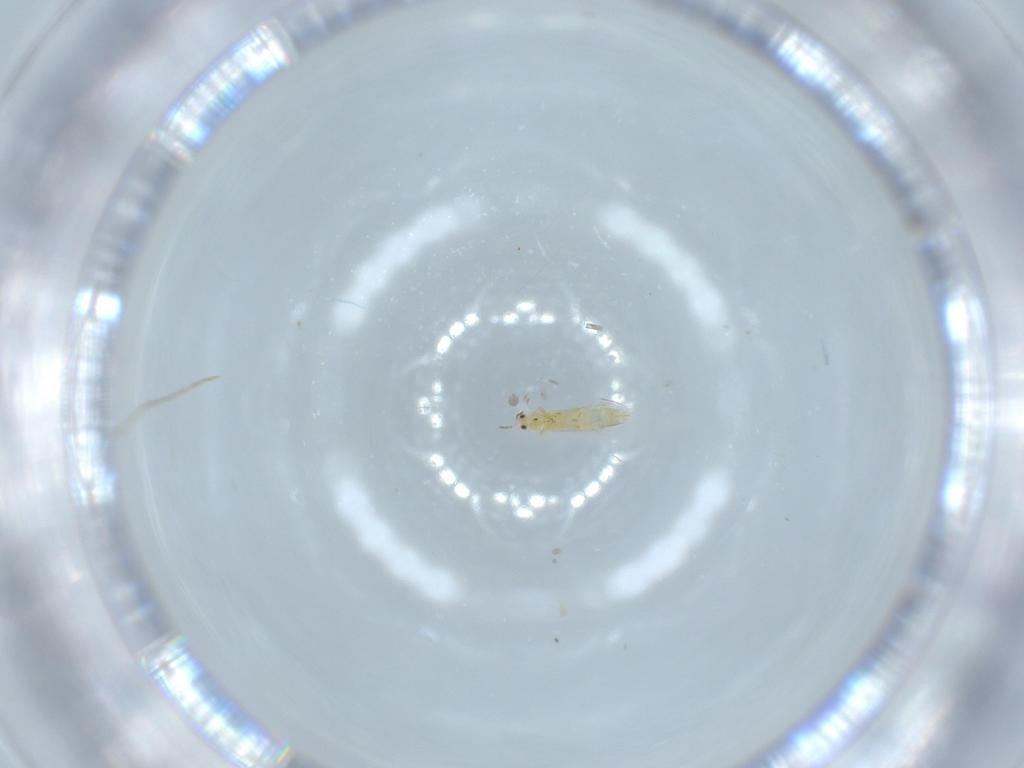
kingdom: Animalia
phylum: Arthropoda
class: Insecta
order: Thysanoptera
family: Thripidae
